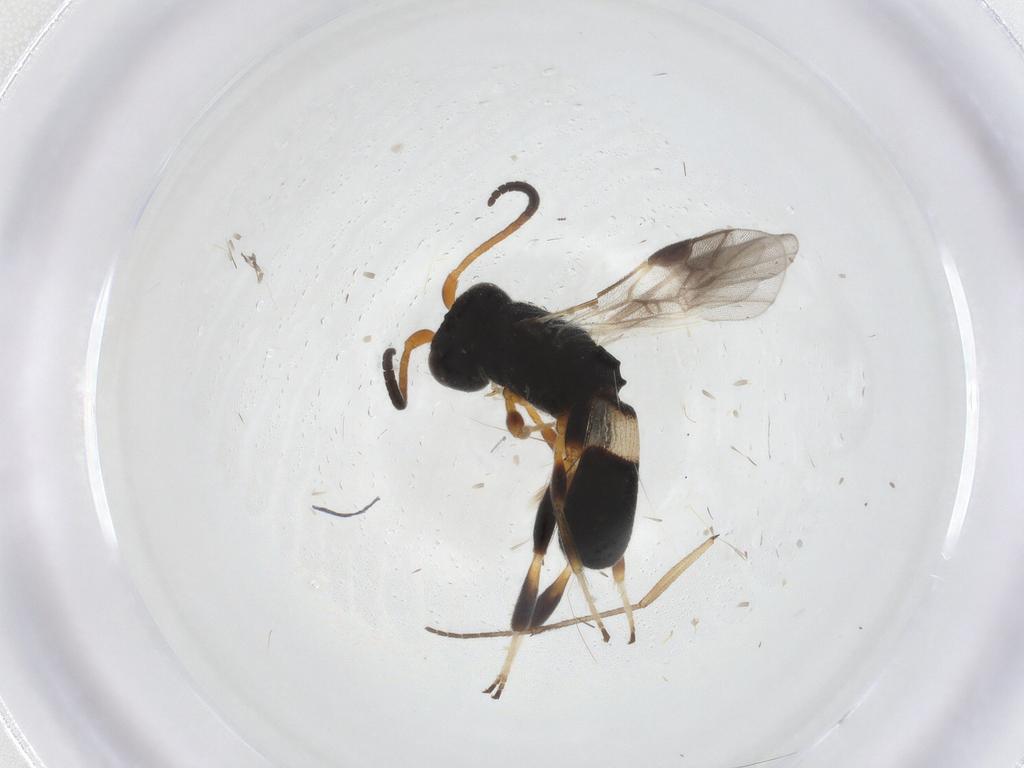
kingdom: Animalia
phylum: Arthropoda
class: Insecta
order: Hymenoptera
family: Braconidae
